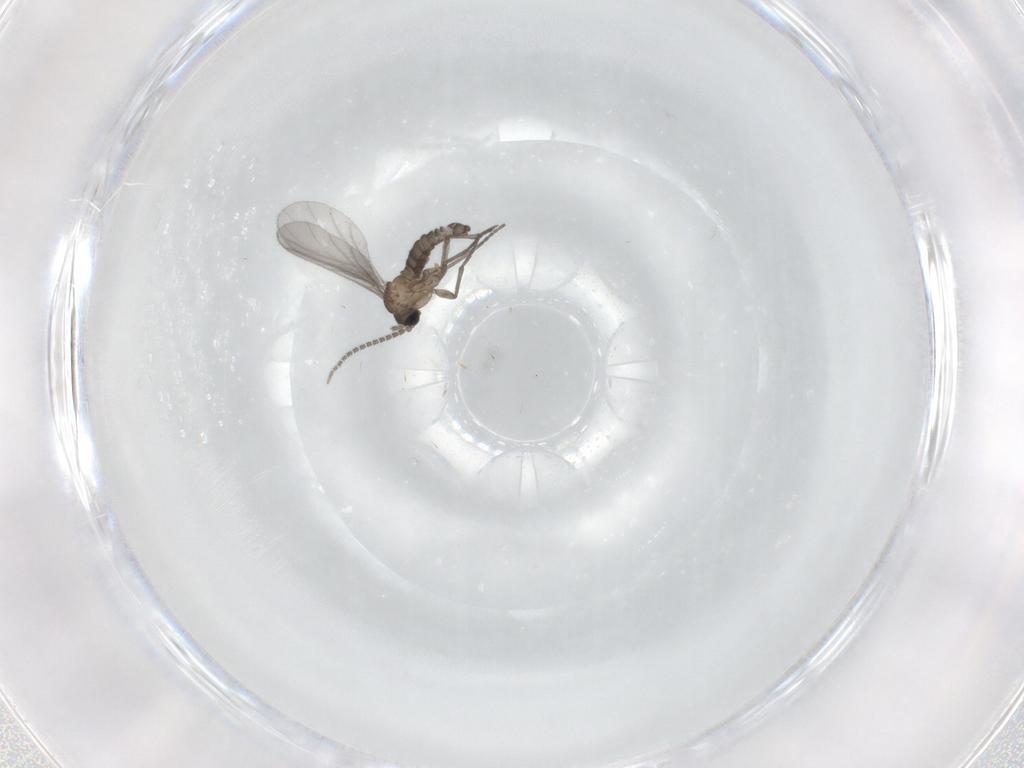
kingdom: Animalia
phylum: Arthropoda
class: Insecta
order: Diptera
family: Sciaridae
